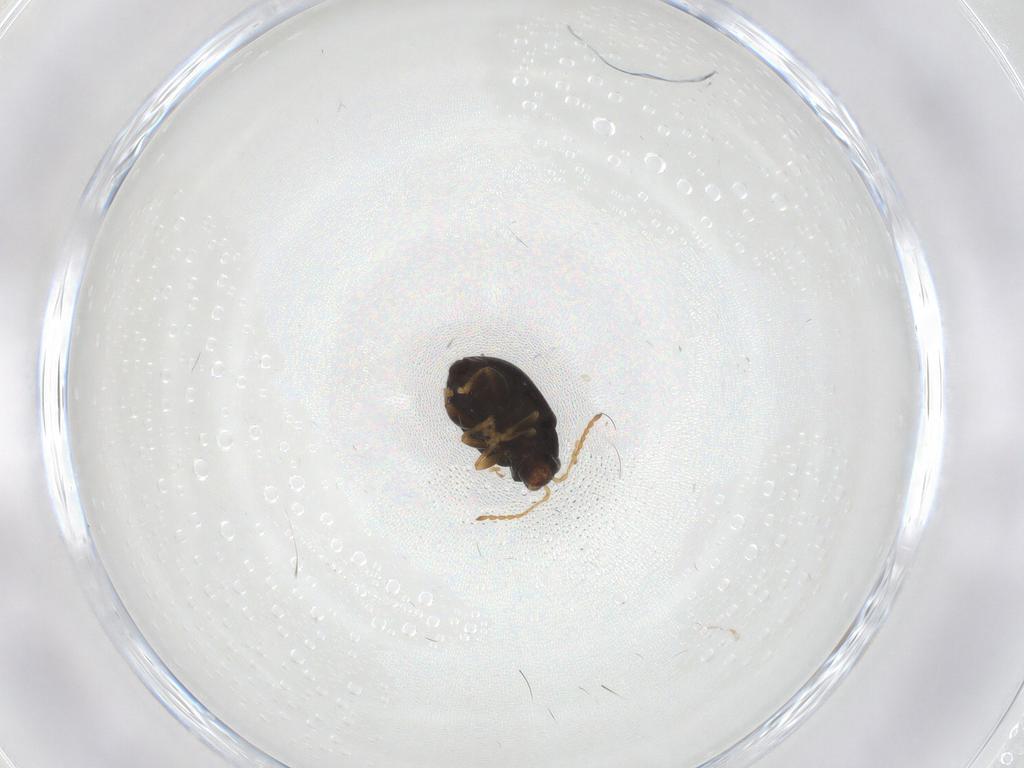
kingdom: Animalia
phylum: Arthropoda
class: Insecta
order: Coleoptera
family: Chrysomelidae
